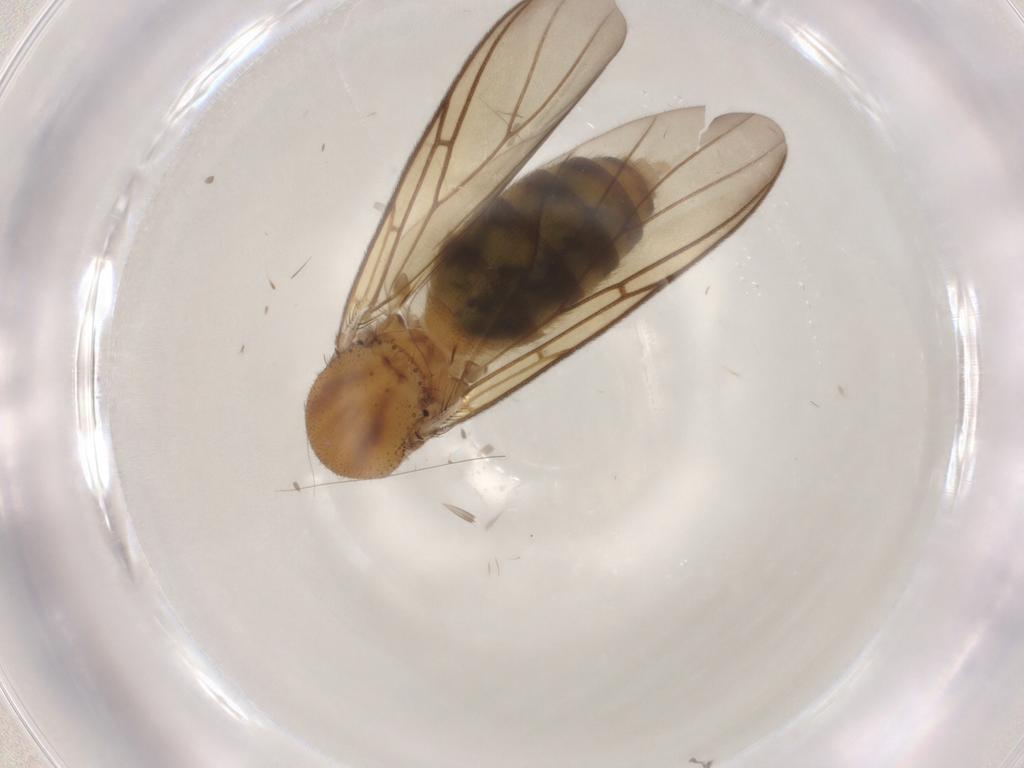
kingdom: Animalia
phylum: Arthropoda
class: Insecta
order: Diptera
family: Mycetophilidae
